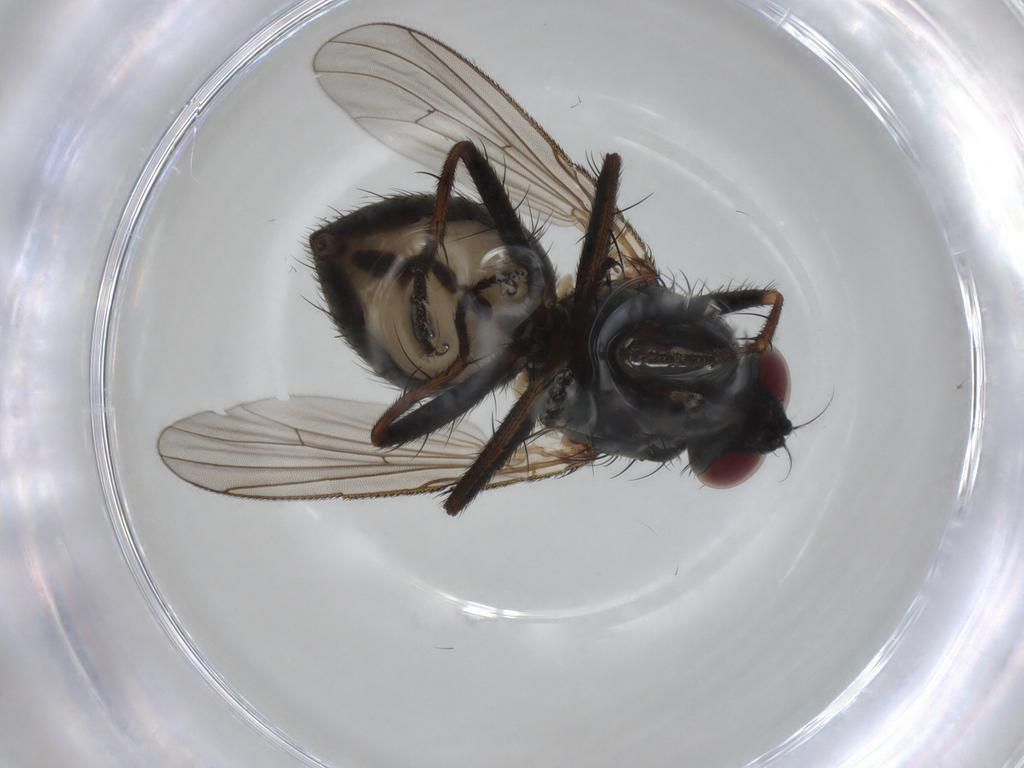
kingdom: Animalia
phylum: Arthropoda
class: Insecta
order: Diptera
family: Muscidae
